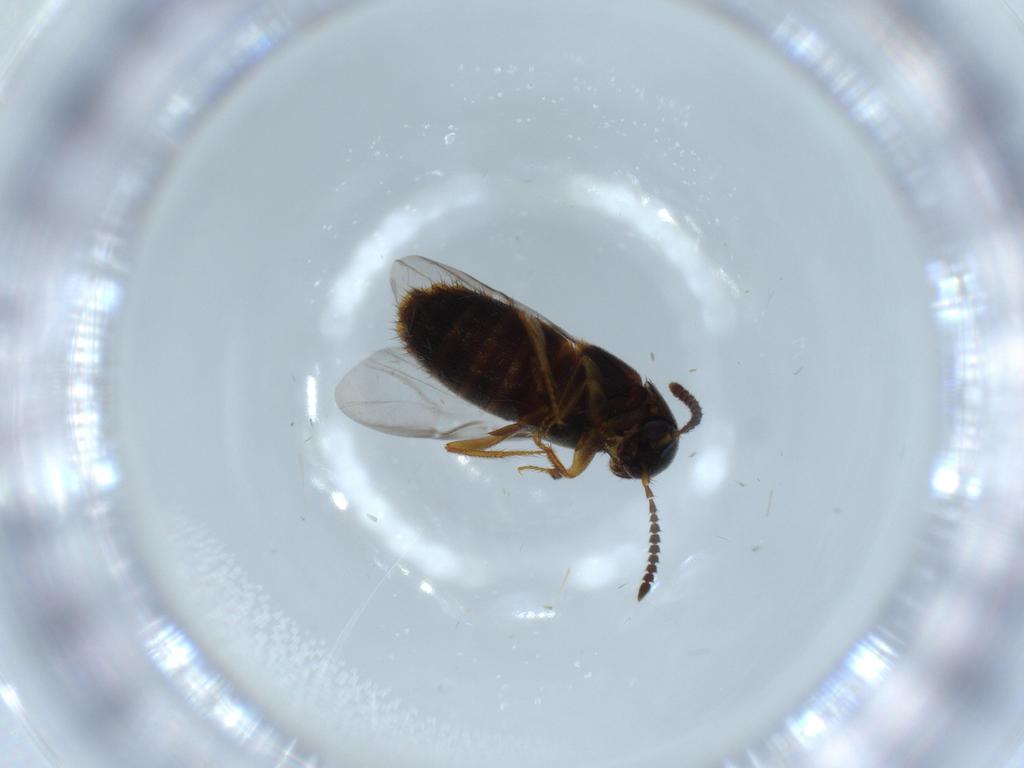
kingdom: Animalia
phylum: Arthropoda
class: Insecta
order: Coleoptera
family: Staphylinidae
